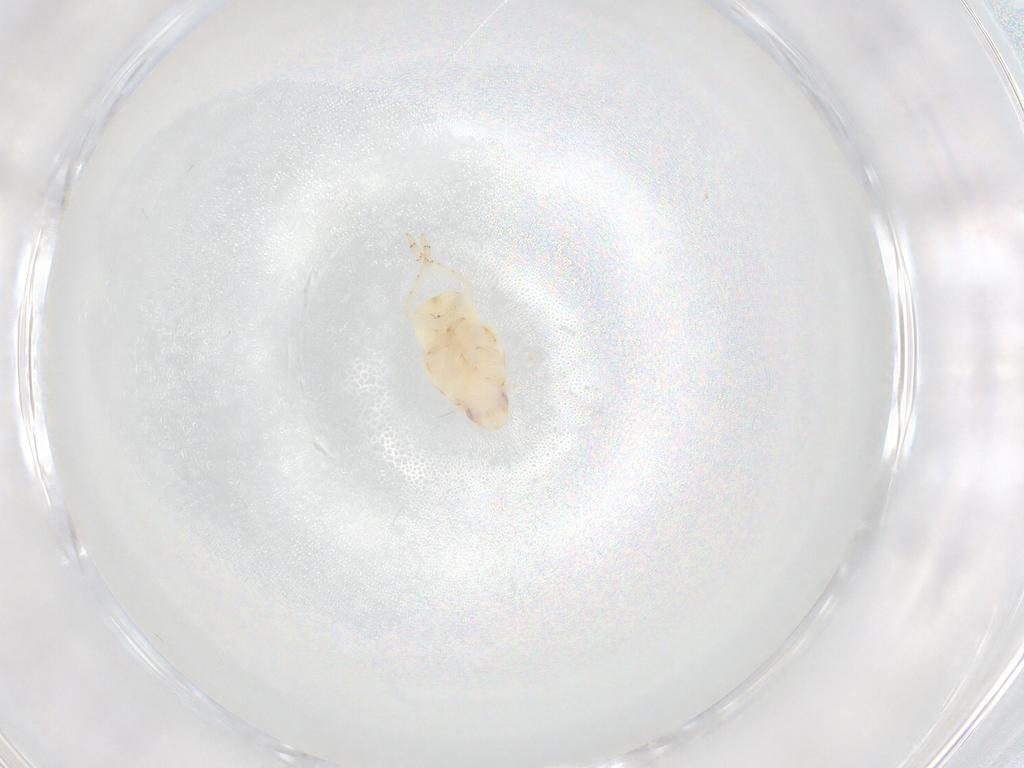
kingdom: Animalia
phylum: Arthropoda
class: Insecta
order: Hemiptera
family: Flatidae
